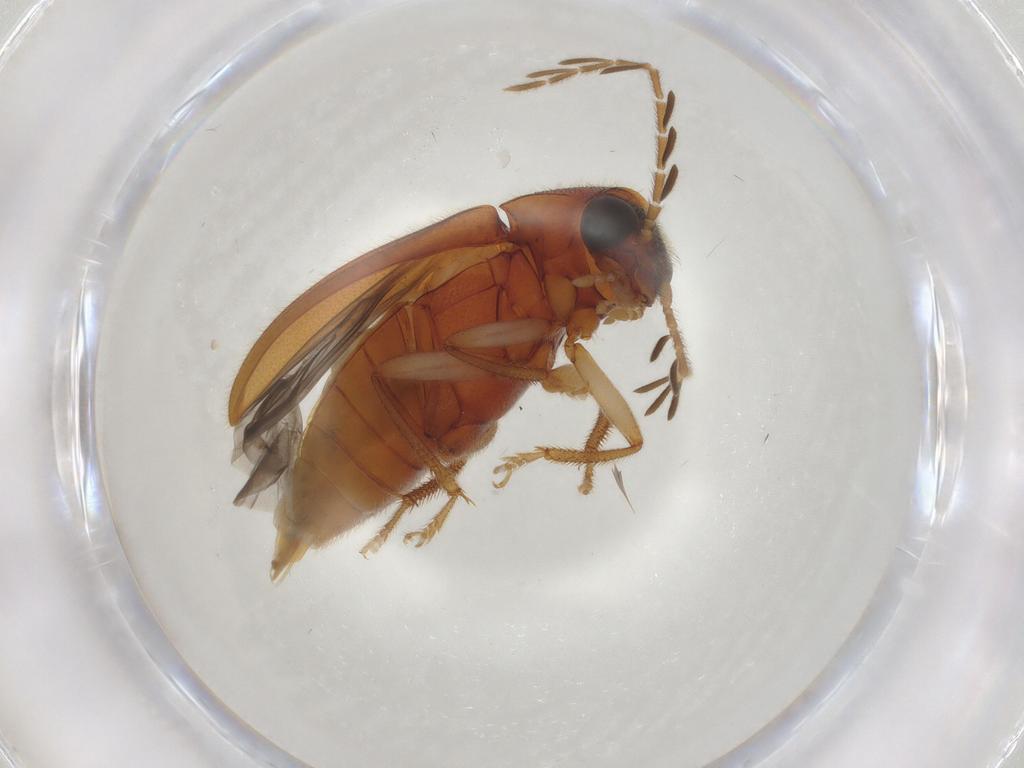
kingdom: Animalia
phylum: Arthropoda
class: Insecta
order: Coleoptera
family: Ptilodactylidae
